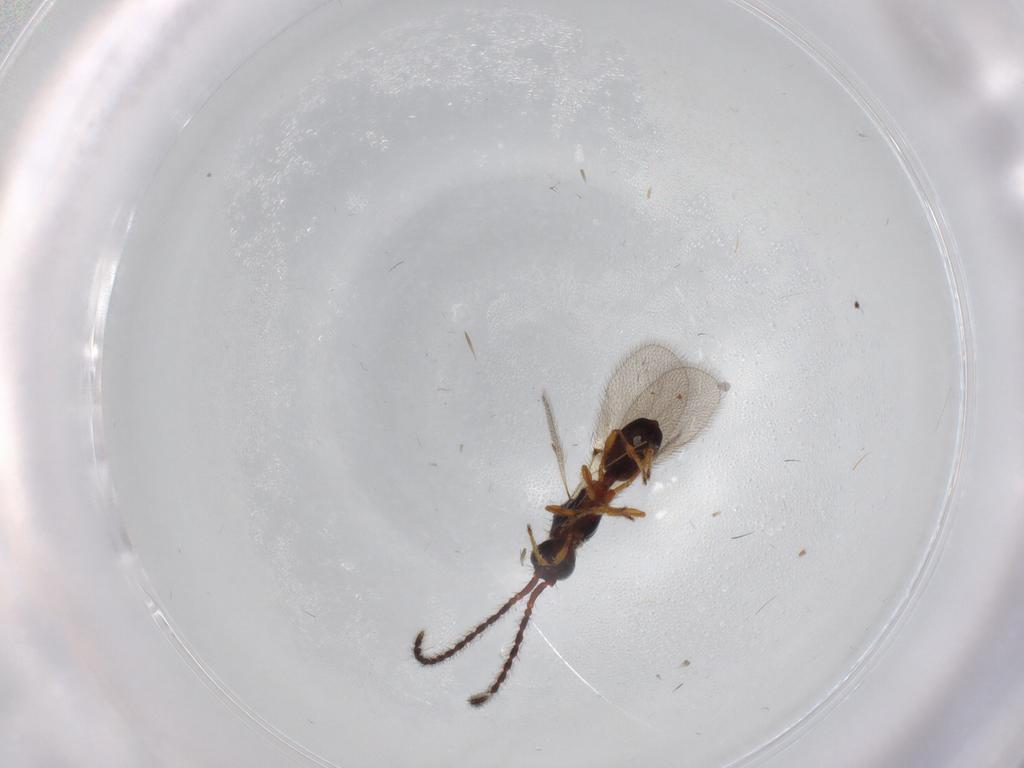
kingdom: Animalia
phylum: Arthropoda
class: Insecta
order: Hymenoptera
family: Diapriidae
